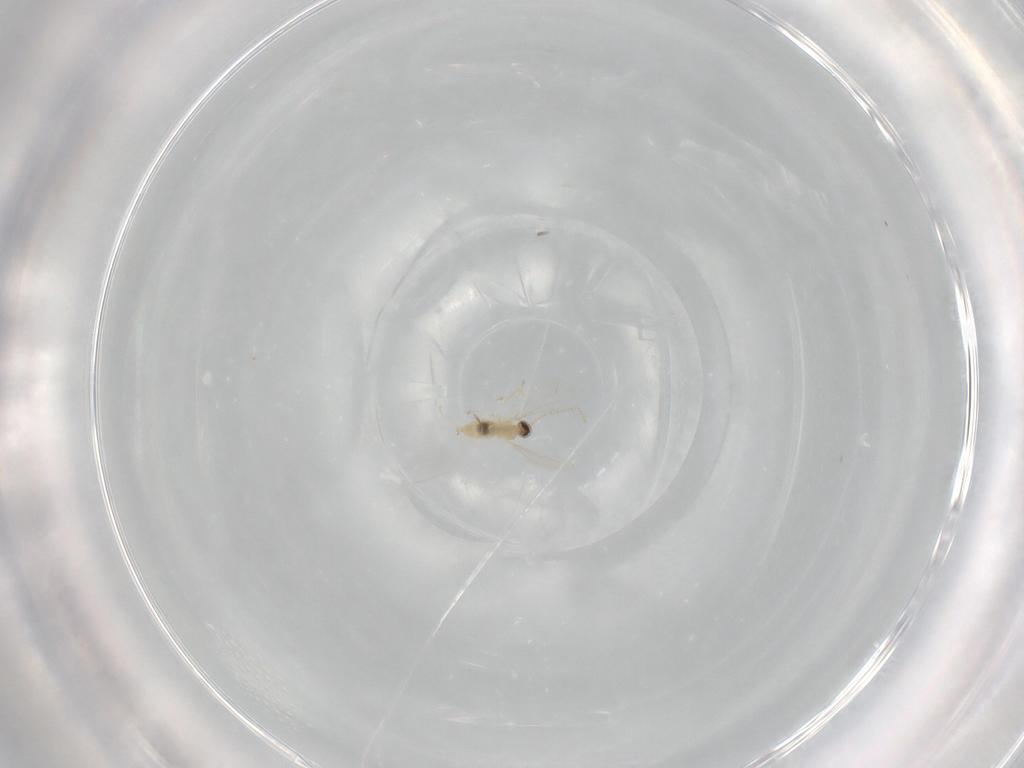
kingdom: Animalia
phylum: Arthropoda
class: Insecta
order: Diptera
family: Cecidomyiidae
